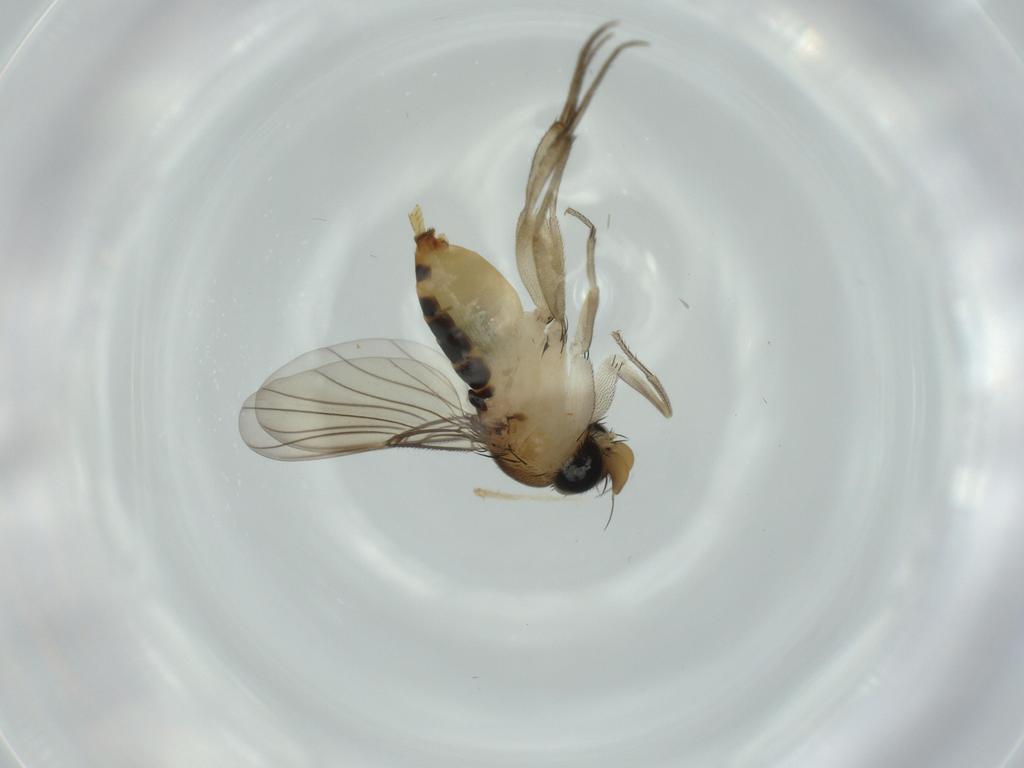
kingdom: Animalia
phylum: Arthropoda
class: Insecta
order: Diptera
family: Phoridae
